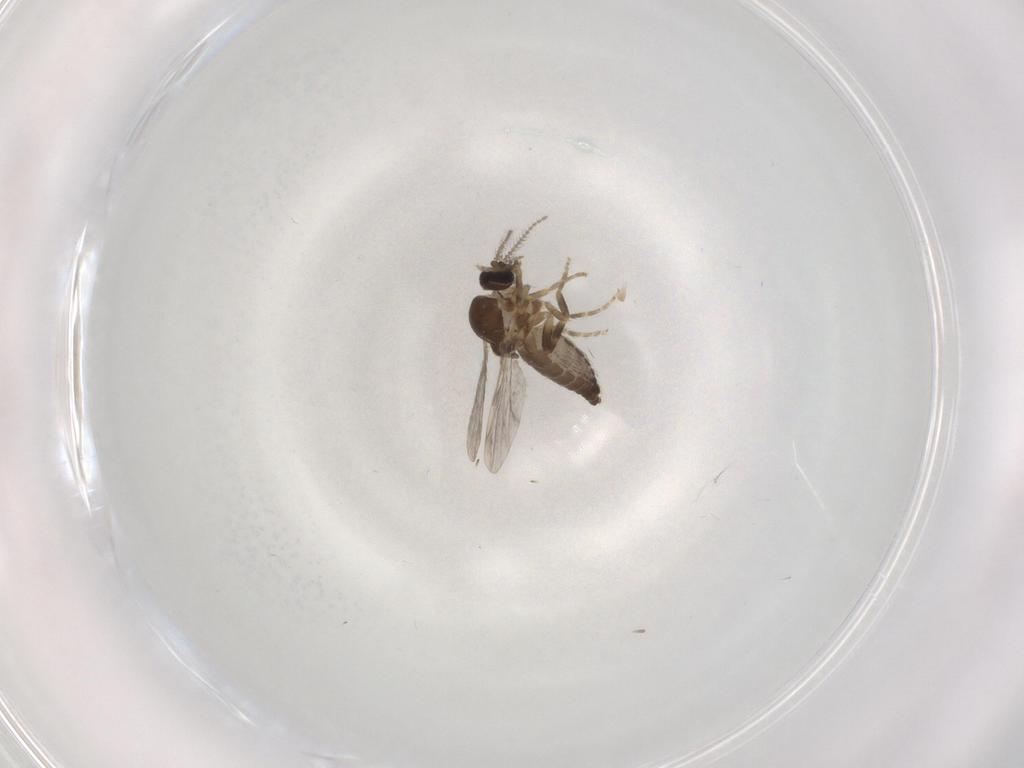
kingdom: Animalia
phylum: Arthropoda
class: Insecta
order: Diptera
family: Ceratopogonidae
